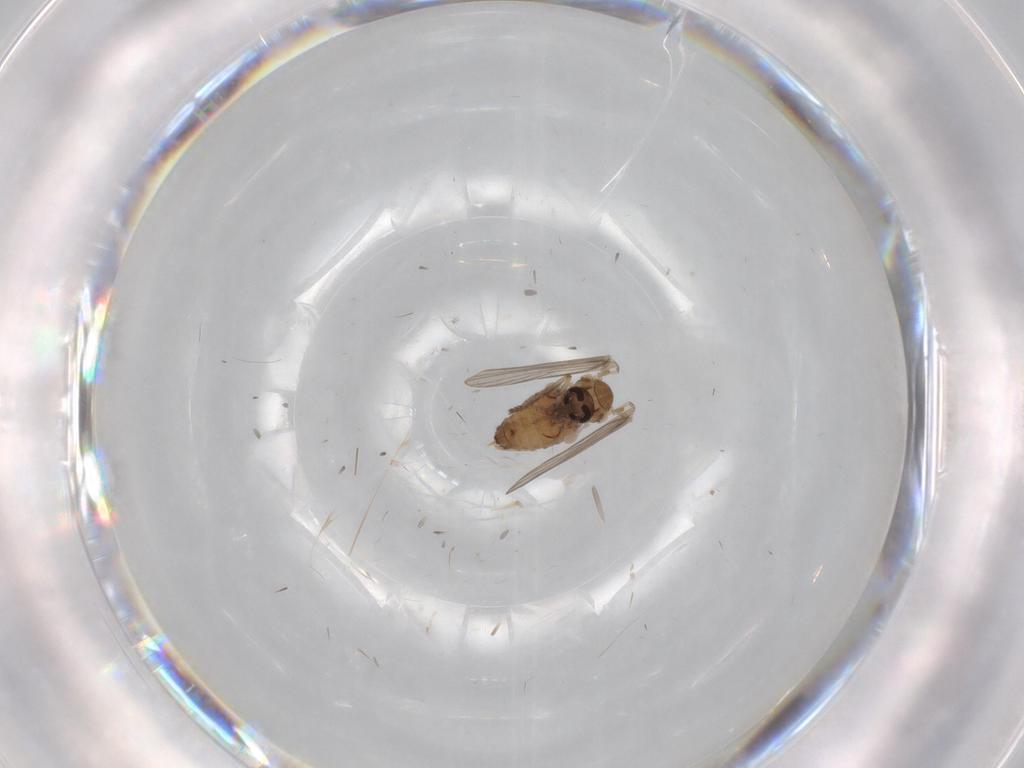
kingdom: Animalia
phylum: Arthropoda
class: Insecta
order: Diptera
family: Psychodidae
